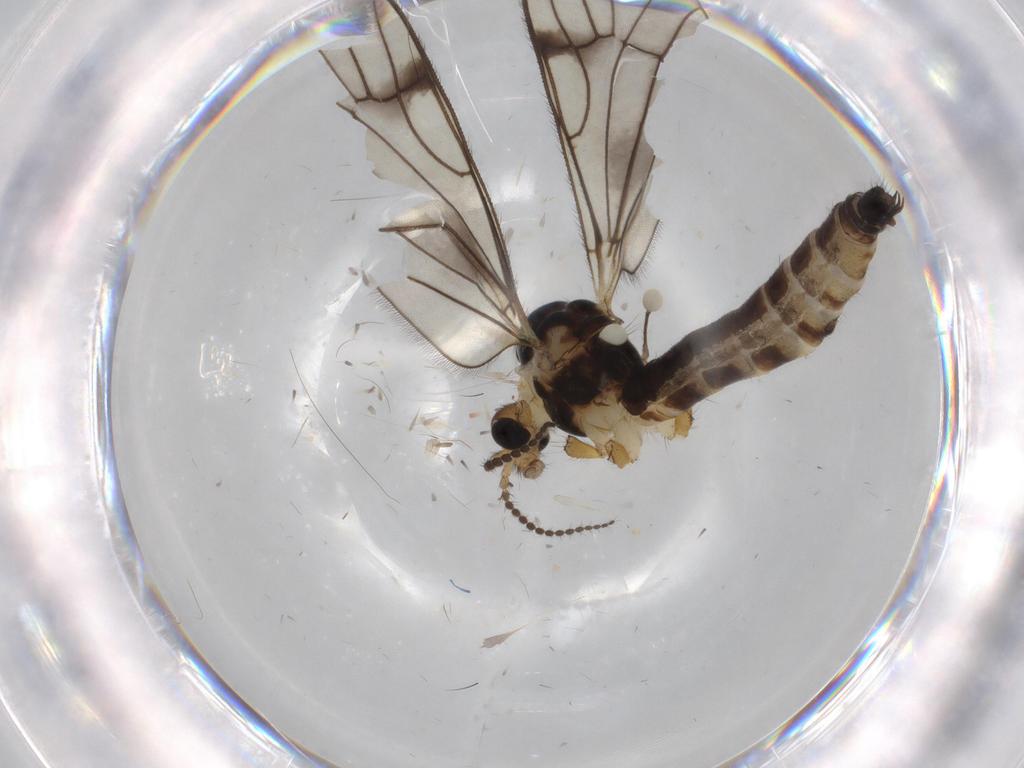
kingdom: Animalia
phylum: Arthropoda
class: Insecta
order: Diptera
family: Limoniidae
